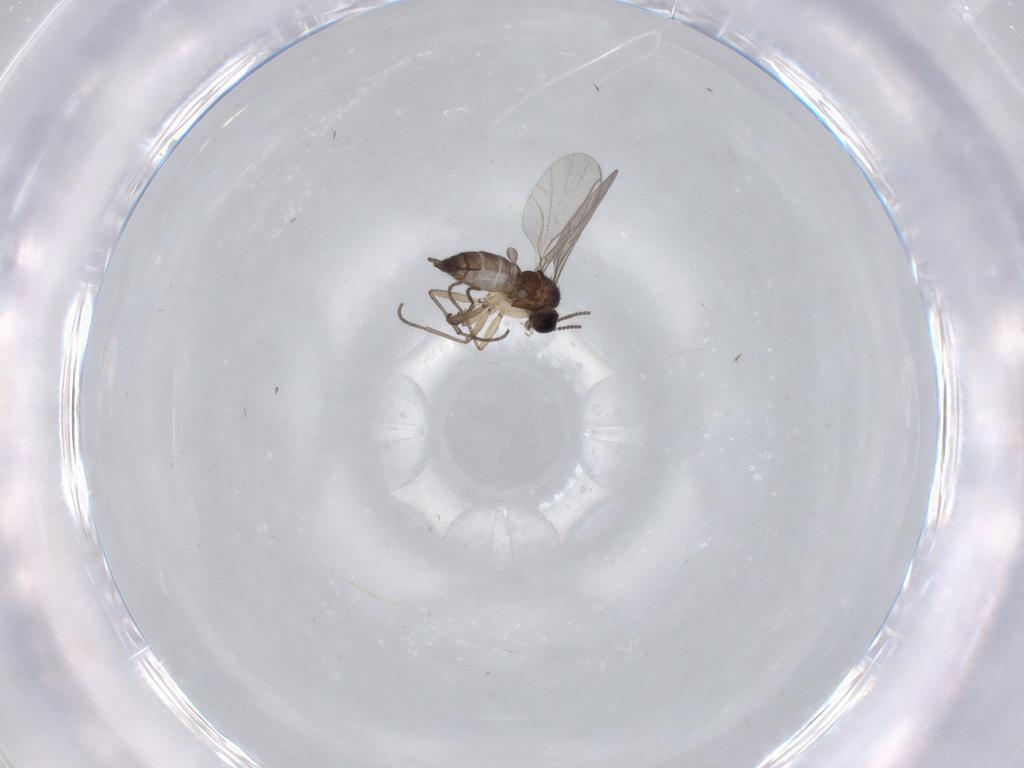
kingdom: Animalia
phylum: Arthropoda
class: Insecta
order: Diptera
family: Sciaridae
